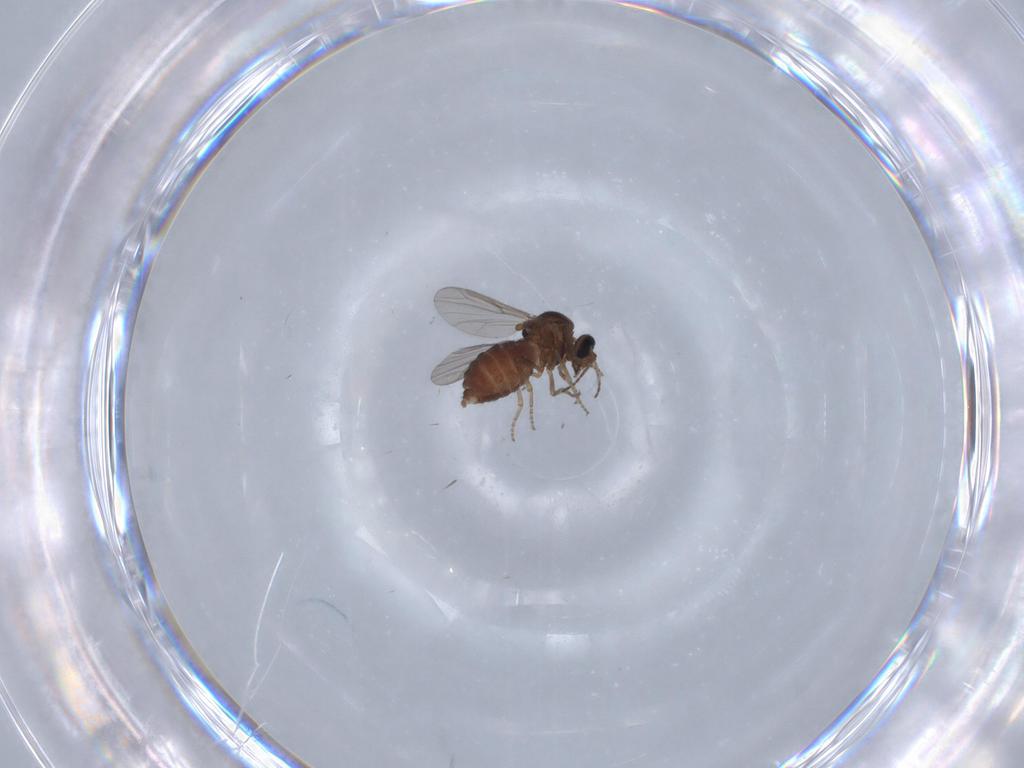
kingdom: Animalia
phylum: Arthropoda
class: Insecta
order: Diptera
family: Ceratopogonidae
